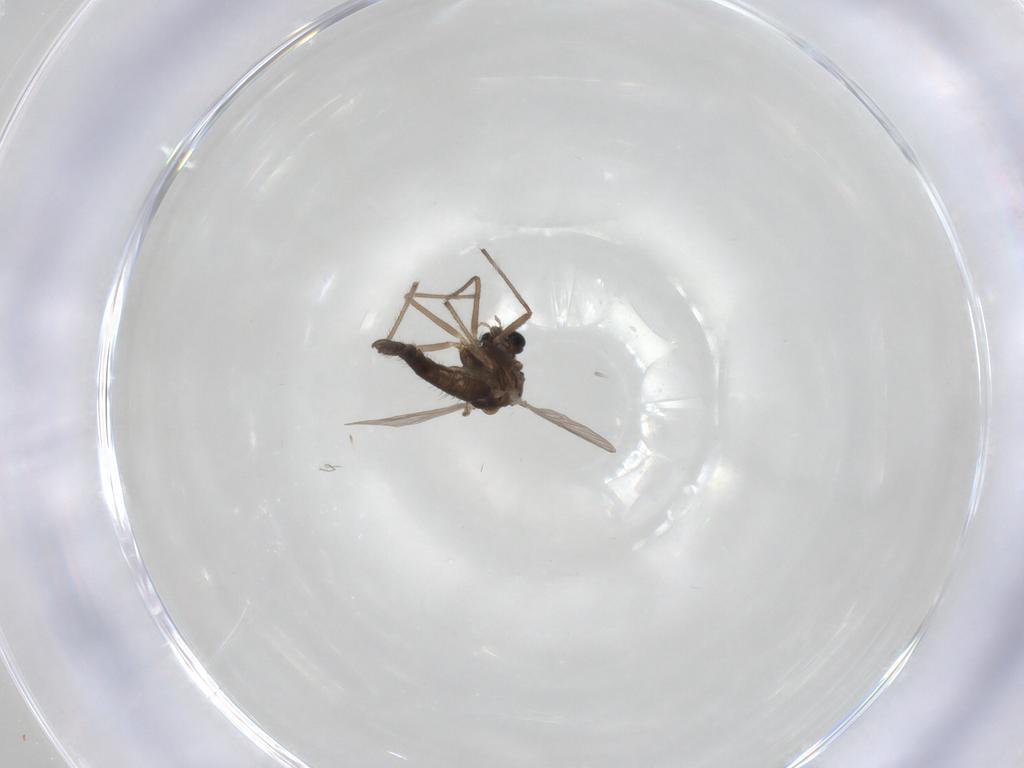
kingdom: Animalia
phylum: Arthropoda
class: Insecta
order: Diptera
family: Chironomidae
